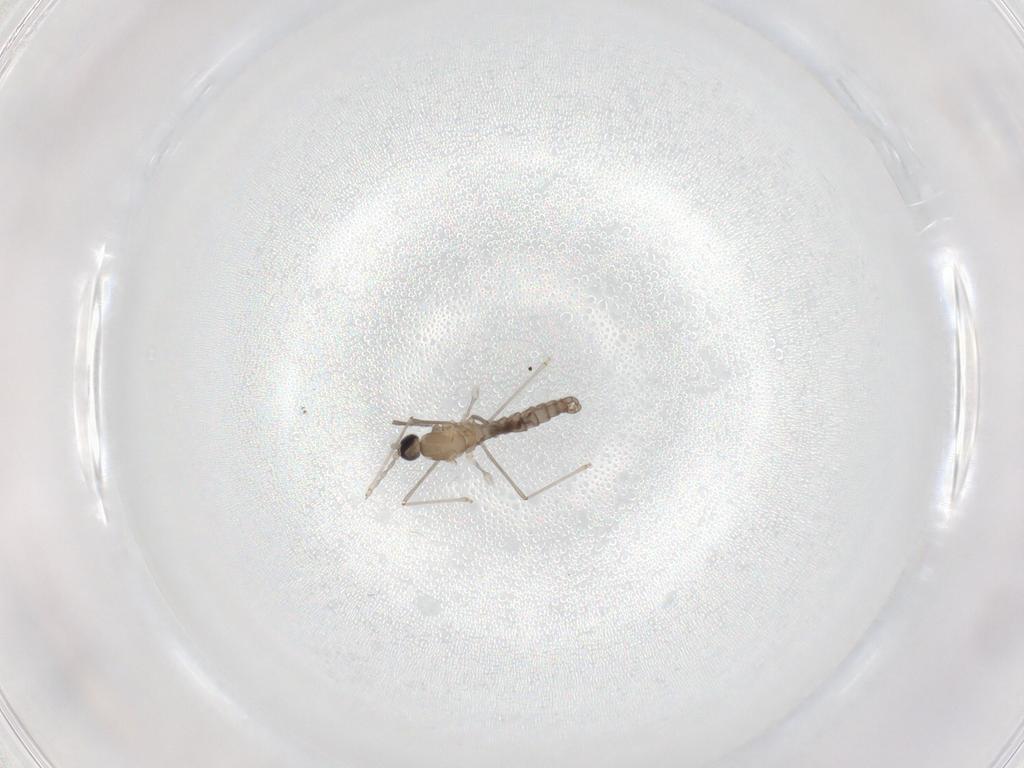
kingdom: Animalia
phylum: Arthropoda
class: Insecta
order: Diptera
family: Cecidomyiidae
